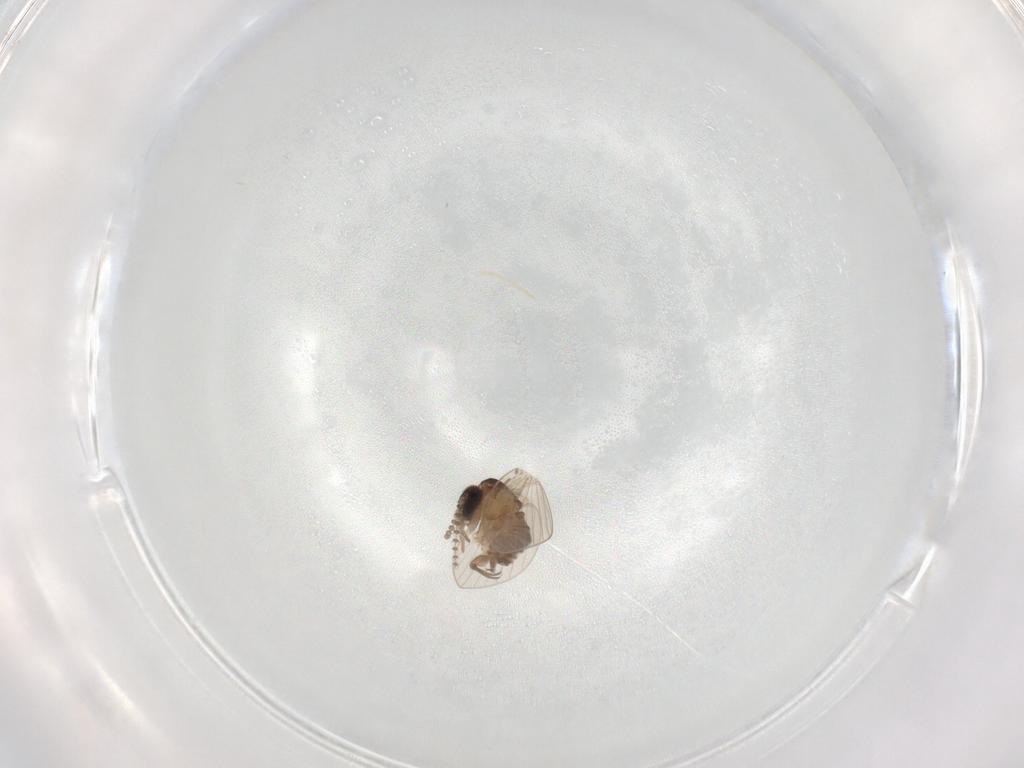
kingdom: Animalia
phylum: Arthropoda
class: Insecta
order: Diptera
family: Psychodidae
